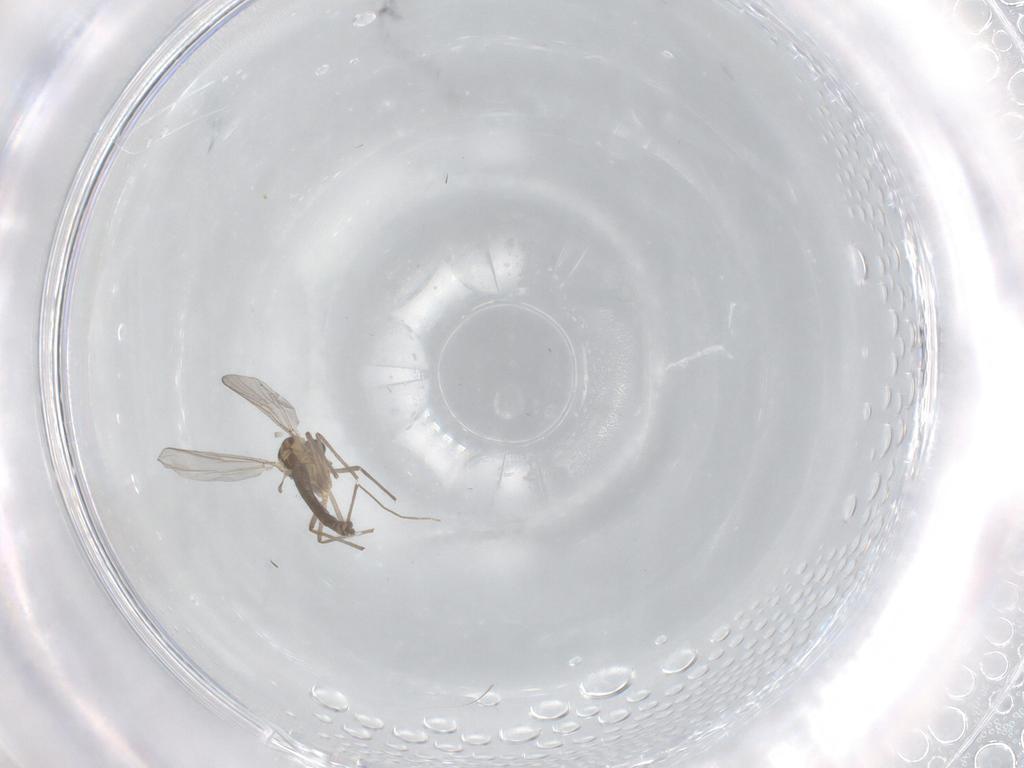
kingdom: Animalia
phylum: Arthropoda
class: Insecta
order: Diptera
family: Chironomidae
